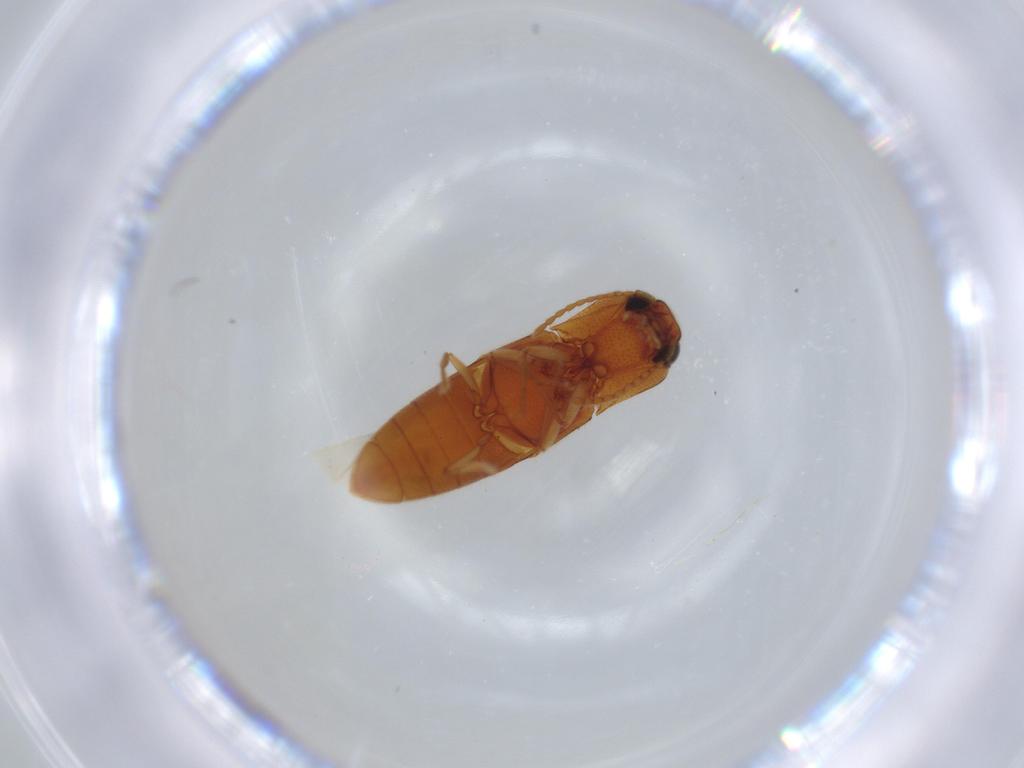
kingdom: Animalia
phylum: Arthropoda
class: Insecta
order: Coleoptera
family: Elateridae
